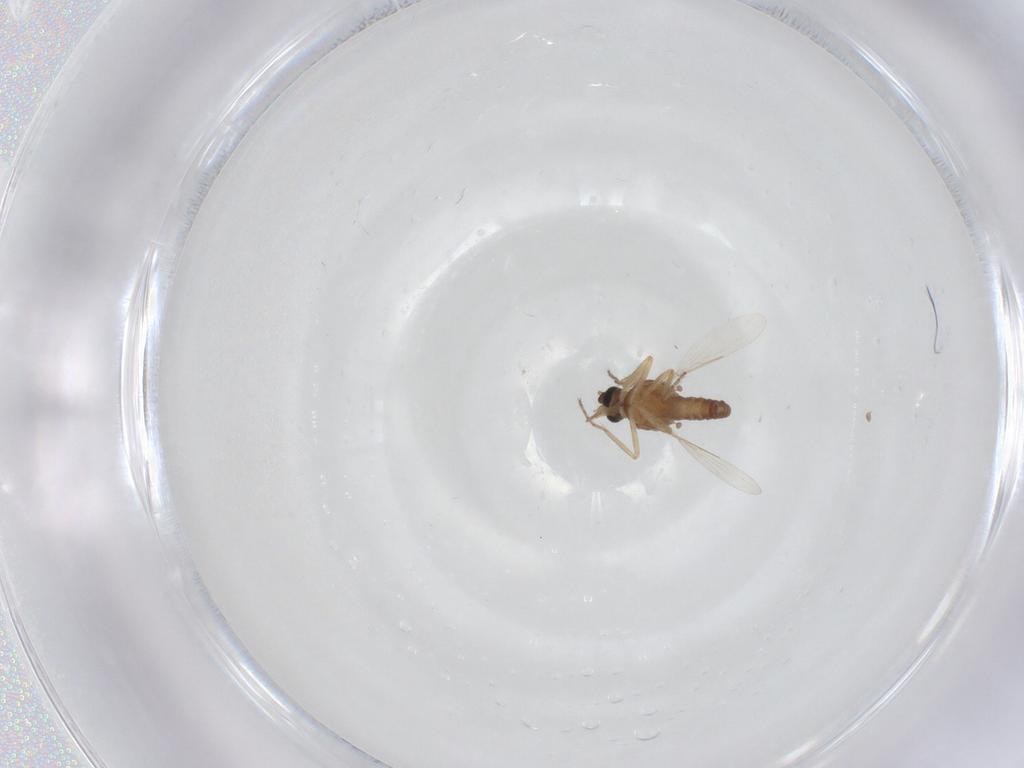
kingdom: Animalia
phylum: Arthropoda
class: Insecta
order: Diptera
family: Ceratopogonidae
